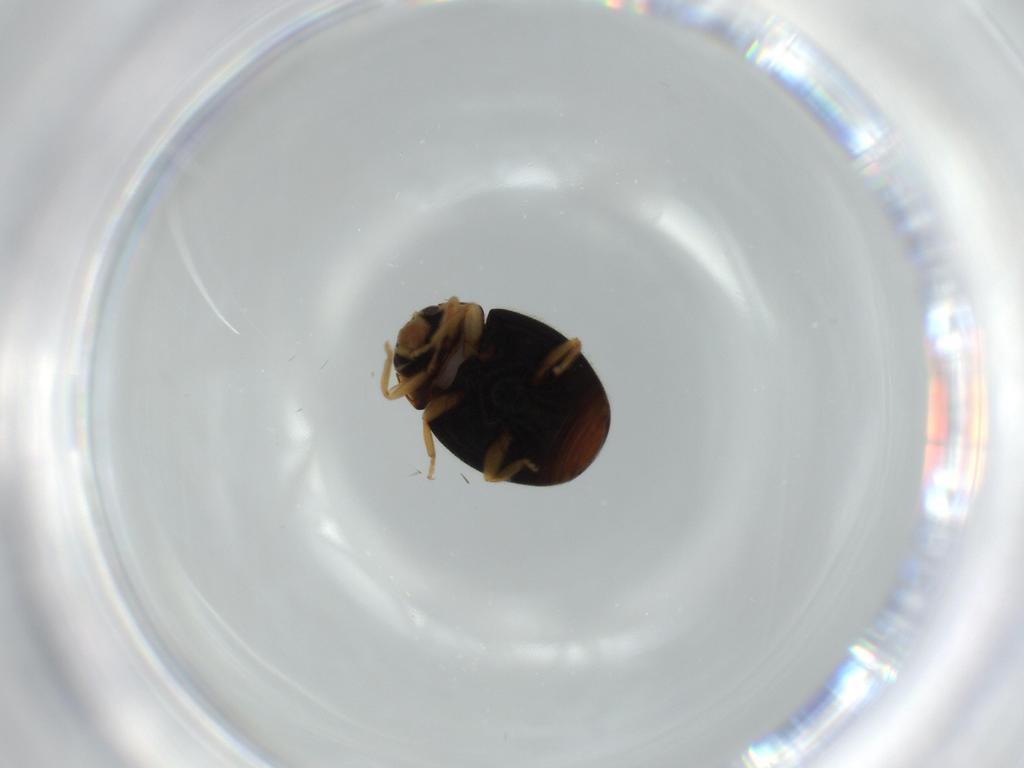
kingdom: Animalia
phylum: Arthropoda
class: Insecta
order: Coleoptera
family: Coccinellidae
